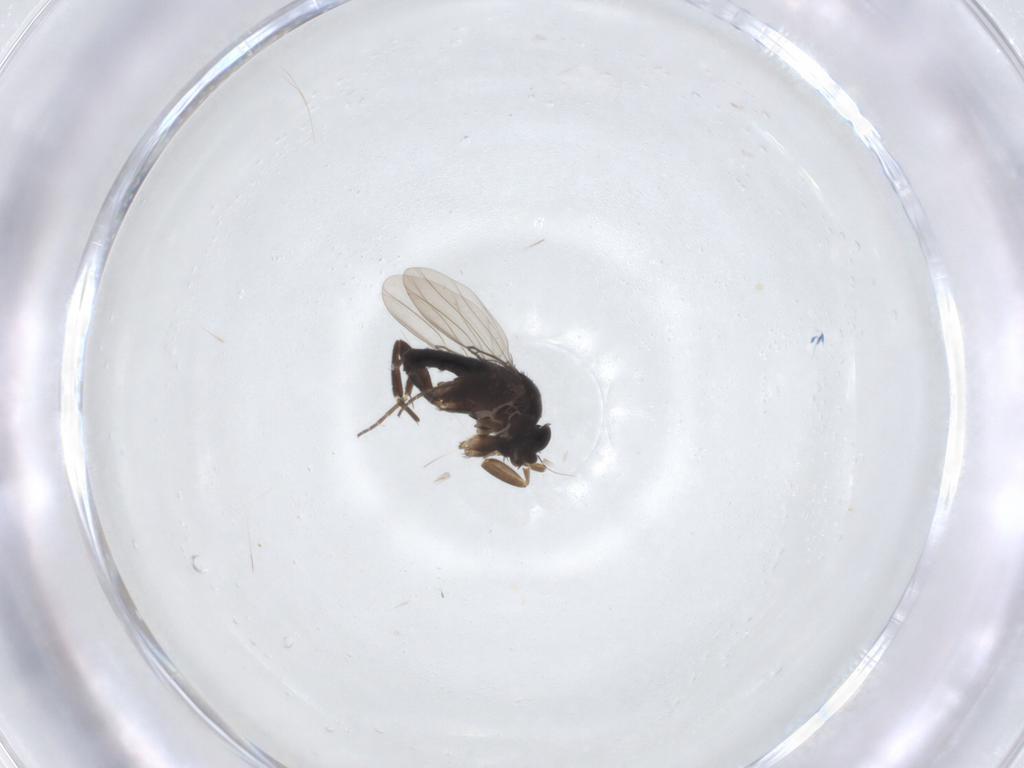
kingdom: Animalia
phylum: Arthropoda
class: Insecta
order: Diptera
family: Phoridae
